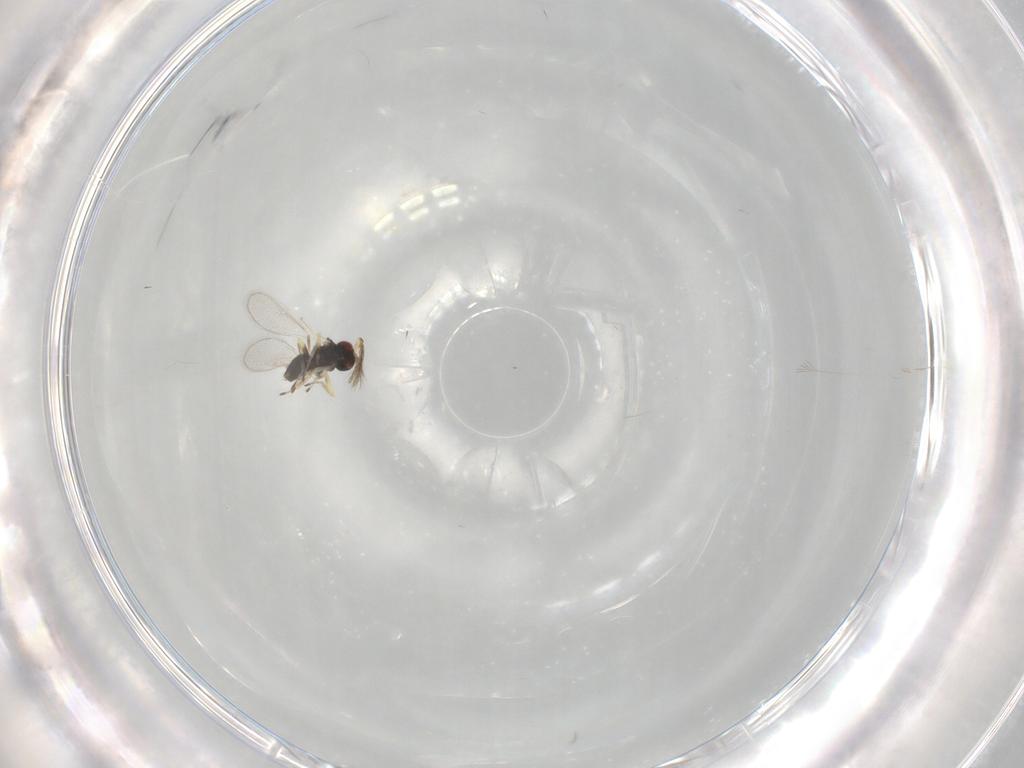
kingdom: Animalia
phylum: Arthropoda
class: Insecta
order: Hymenoptera
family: Eulophidae
